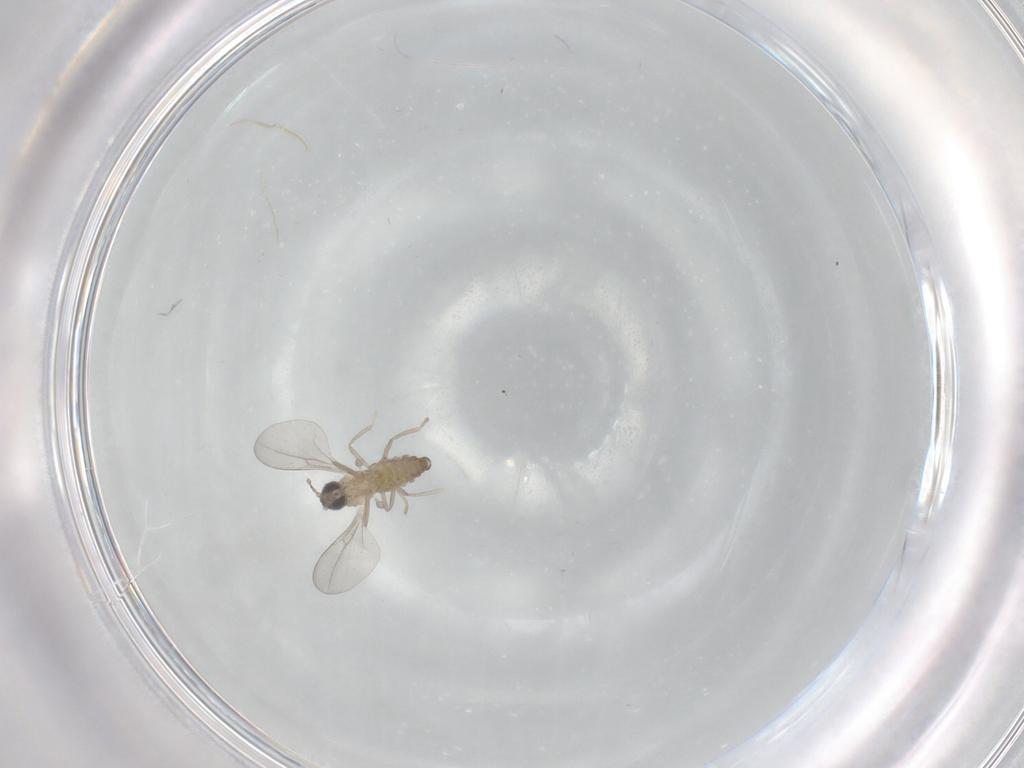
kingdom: Animalia
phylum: Arthropoda
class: Insecta
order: Diptera
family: Cecidomyiidae
